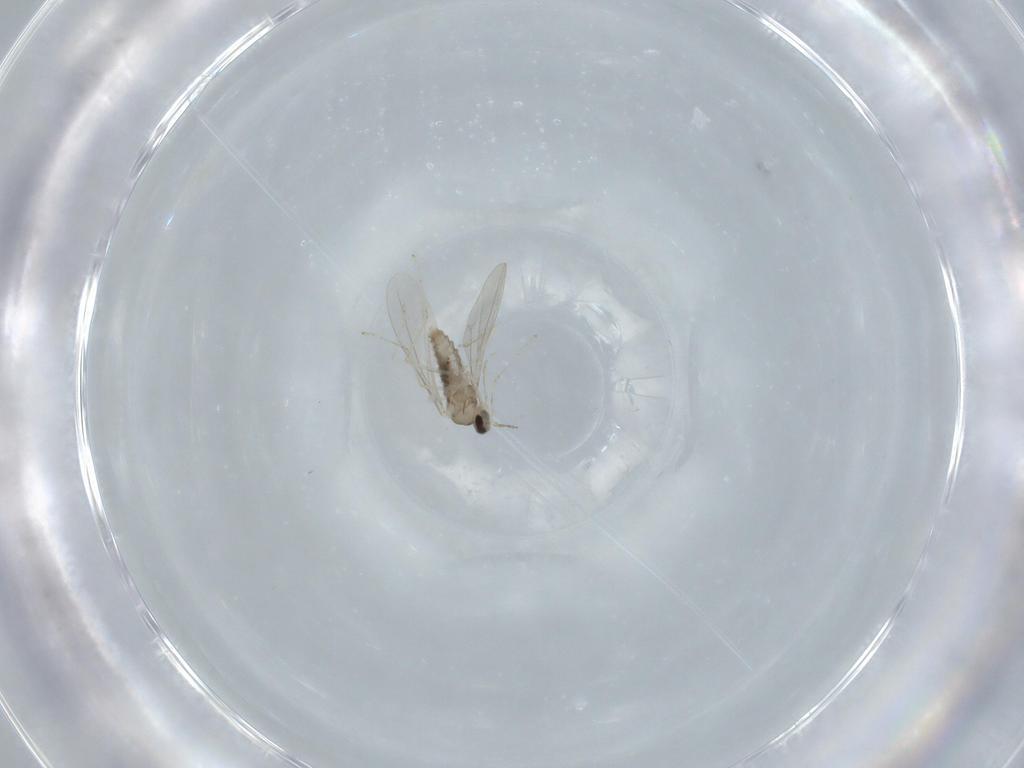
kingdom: Animalia
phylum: Arthropoda
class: Insecta
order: Diptera
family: Cecidomyiidae
